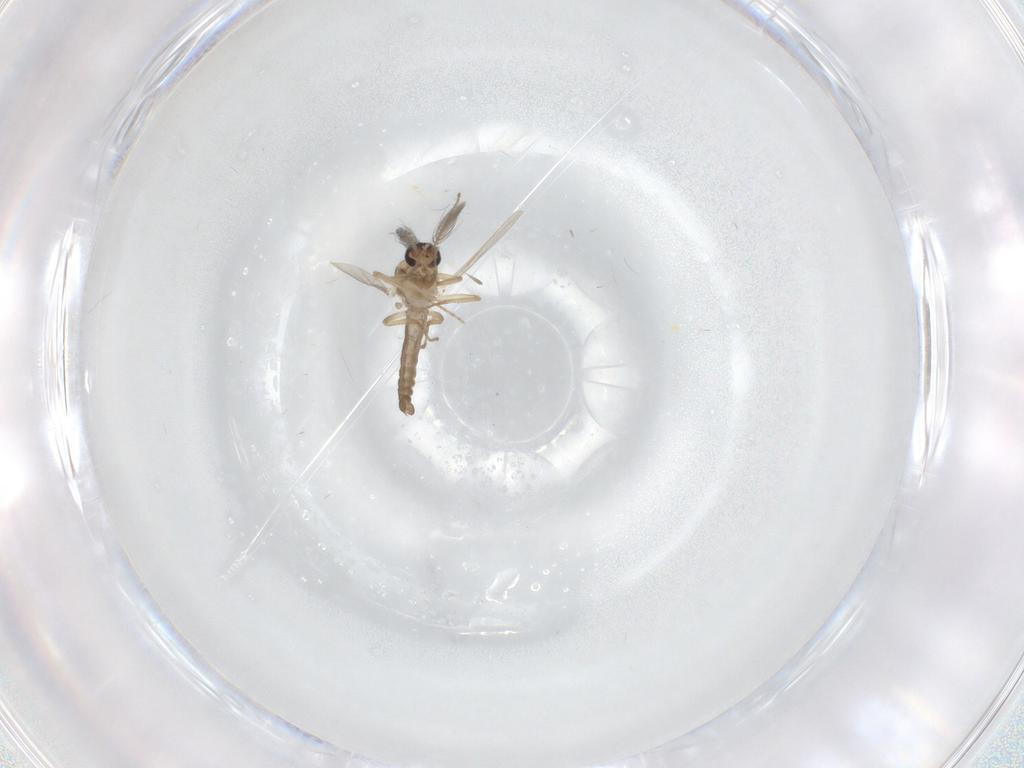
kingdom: Animalia
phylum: Arthropoda
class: Insecta
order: Diptera
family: Ceratopogonidae
